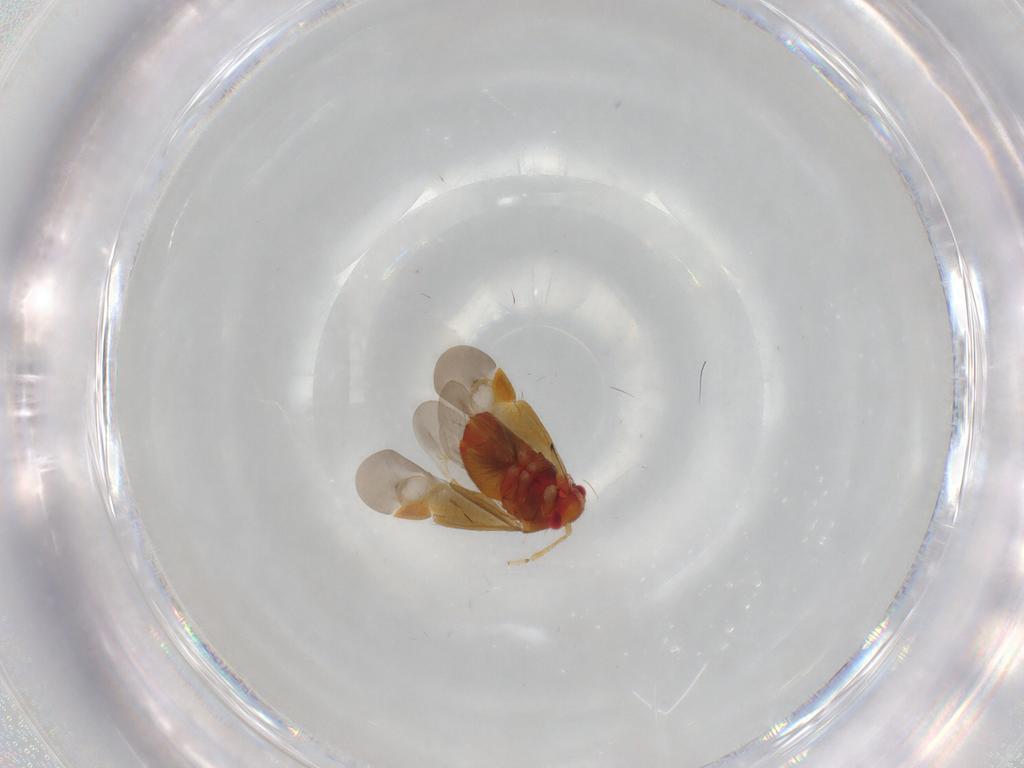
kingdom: Animalia
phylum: Arthropoda
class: Insecta
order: Hemiptera
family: Miridae
